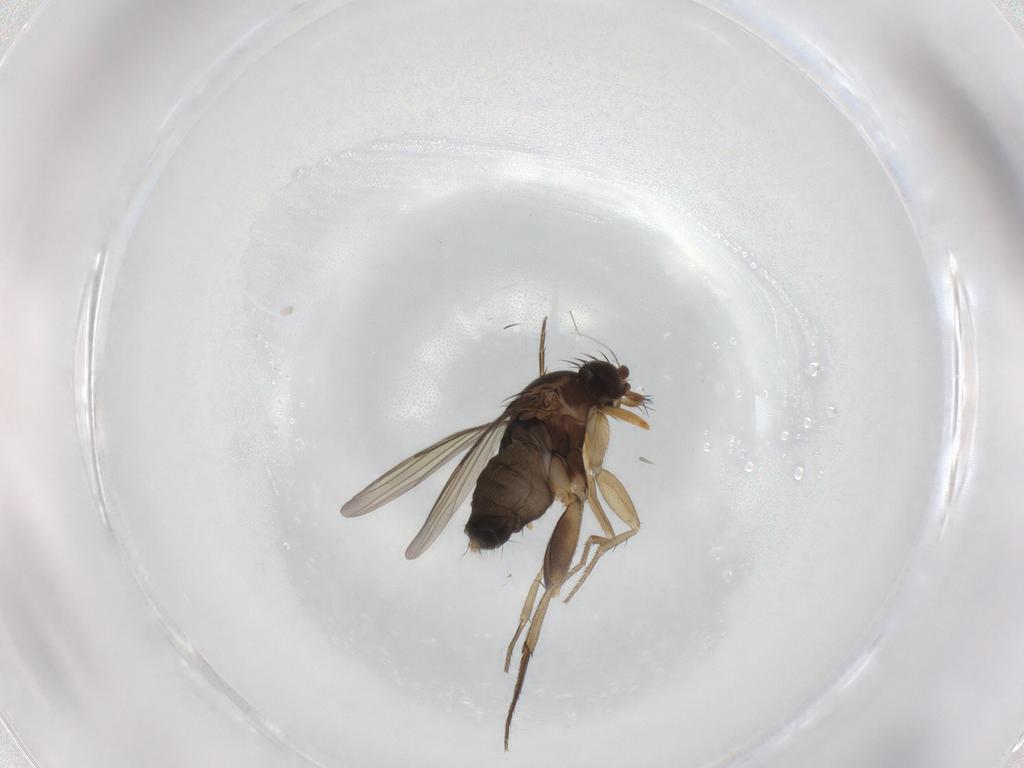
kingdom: Animalia
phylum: Arthropoda
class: Insecta
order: Diptera
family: Phoridae
